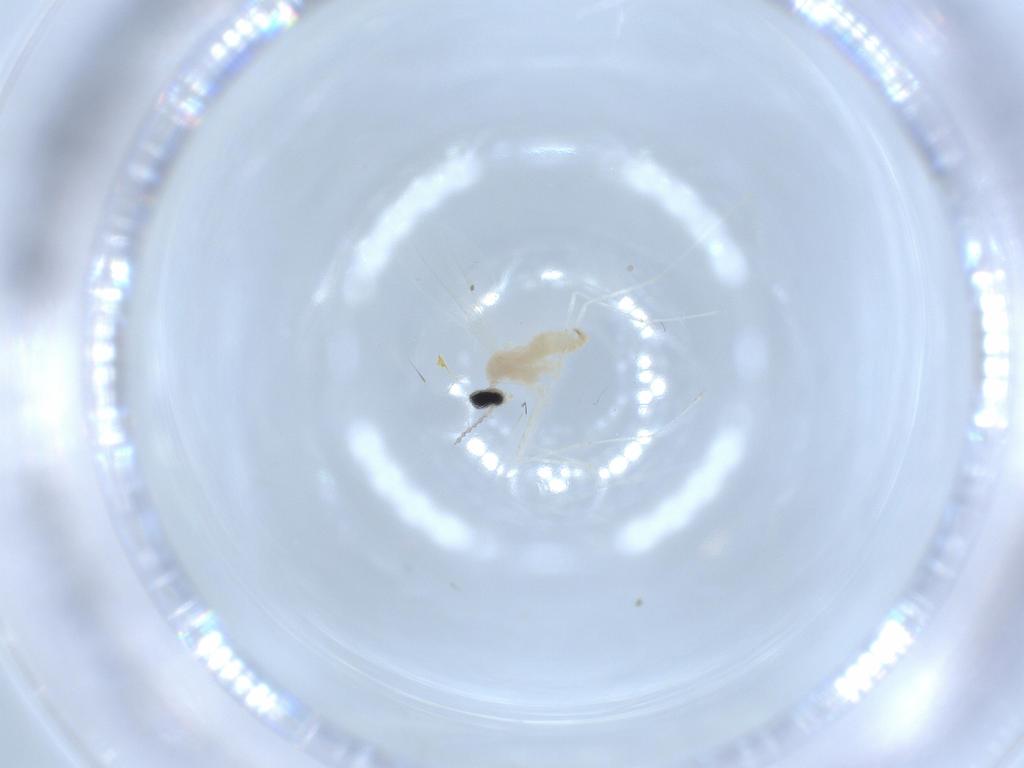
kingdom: Animalia
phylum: Arthropoda
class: Insecta
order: Diptera
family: Cecidomyiidae
